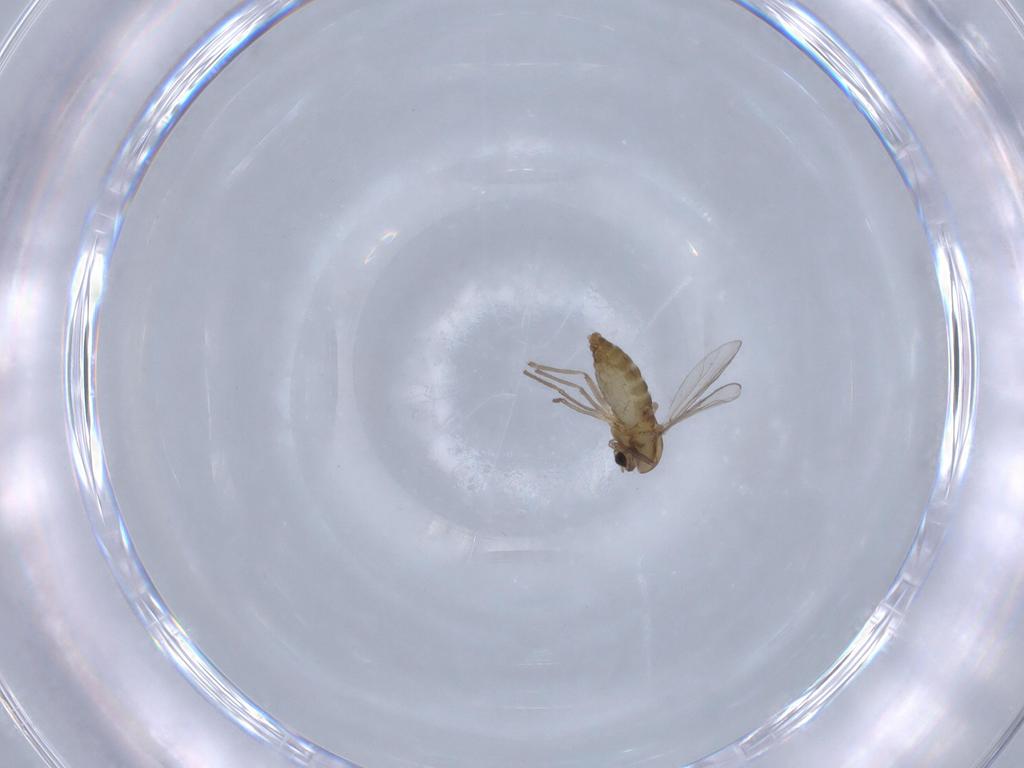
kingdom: Animalia
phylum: Arthropoda
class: Insecta
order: Diptera
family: Chironomidae
